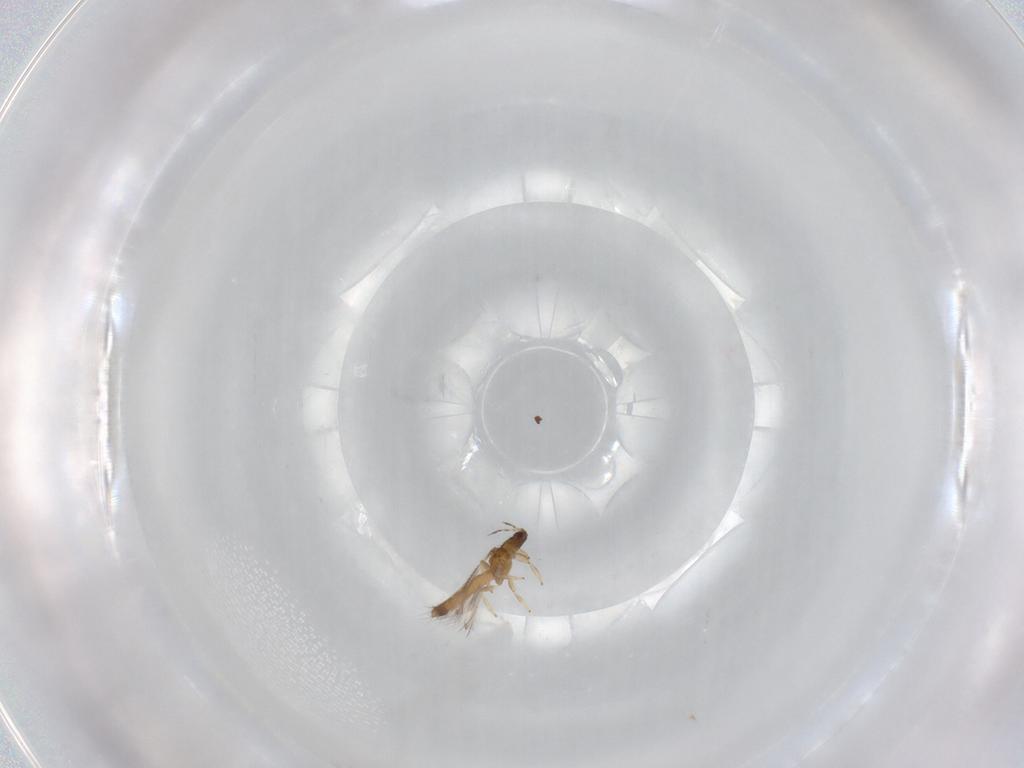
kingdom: Animalia
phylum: Arthropoda
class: Insecta
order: Thysanoptera
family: Thripidae
